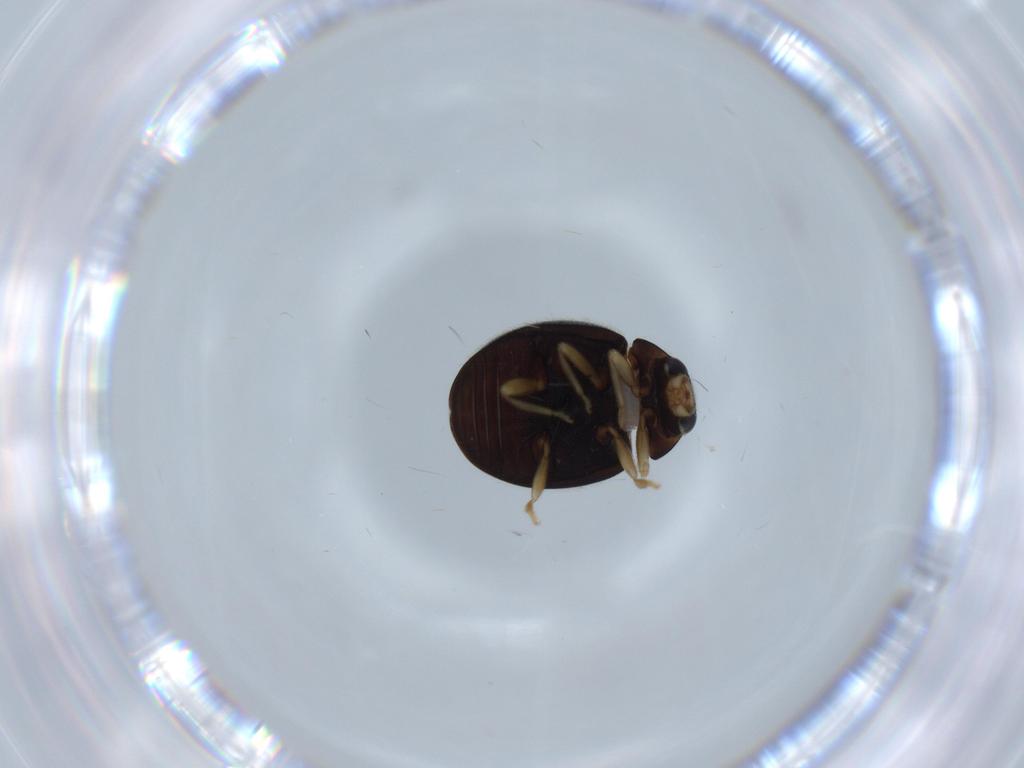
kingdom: Animalia
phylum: Arthropoda
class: Insecta
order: Coleoptera
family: Coccinellidae
